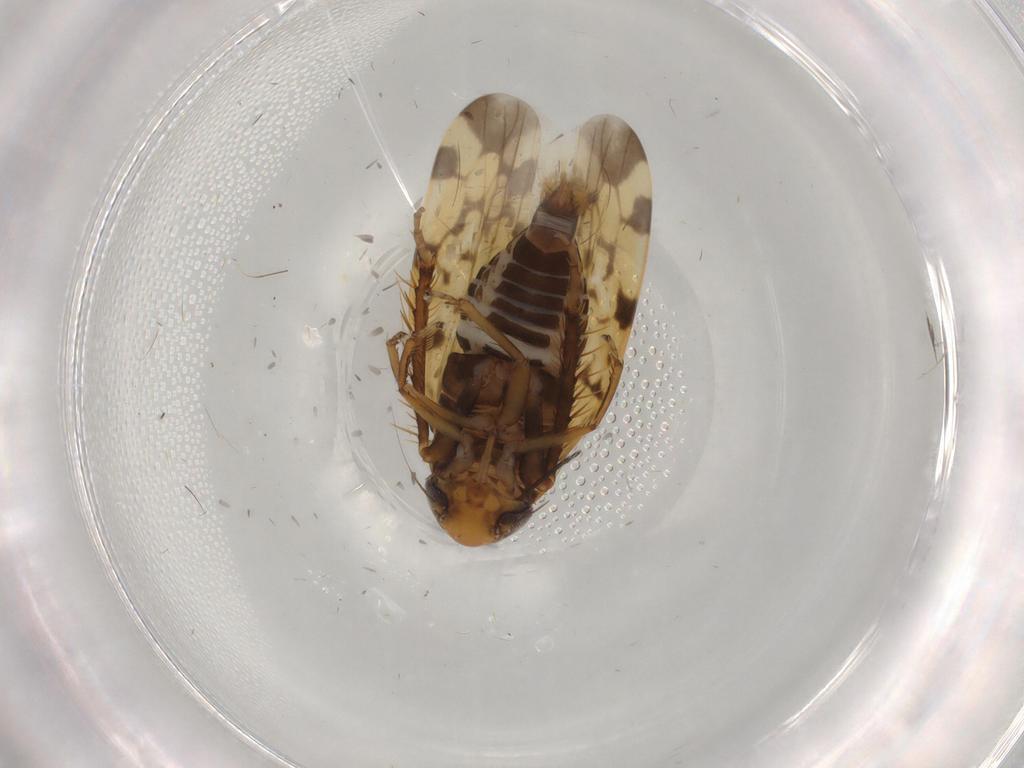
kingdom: Animalia
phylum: Arthropoda
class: Insecta
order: Hemiptera
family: Cicadellidae
